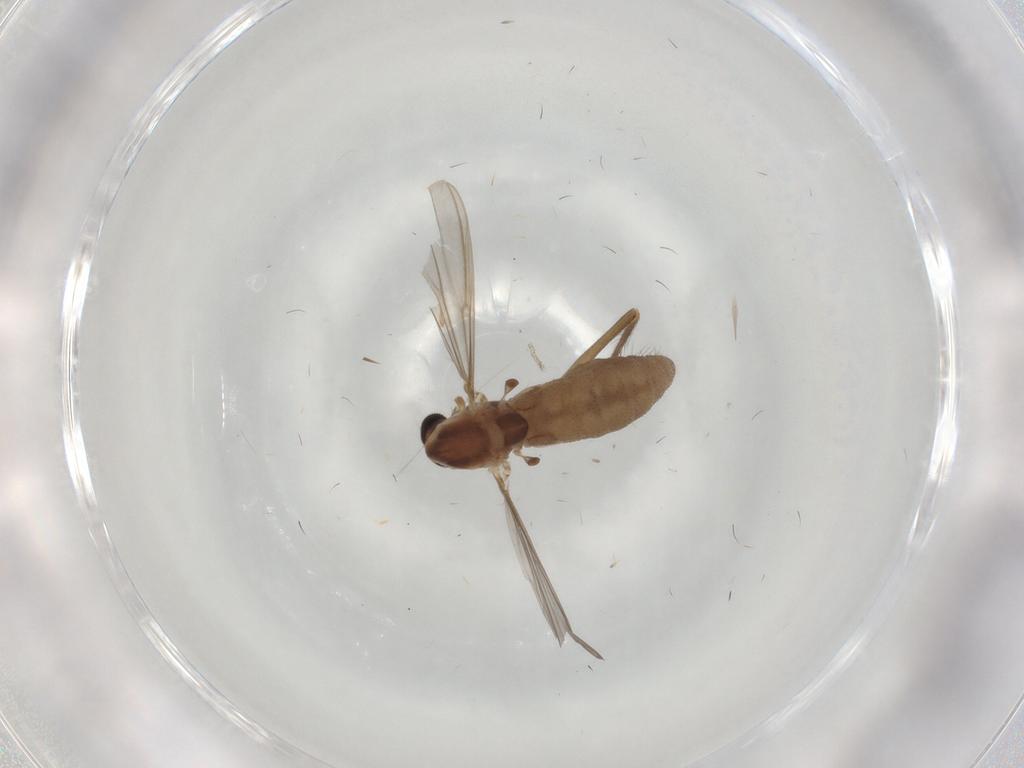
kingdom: Animalia
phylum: Arthropoda
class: Insecta
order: Diptera
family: Chironomidae
